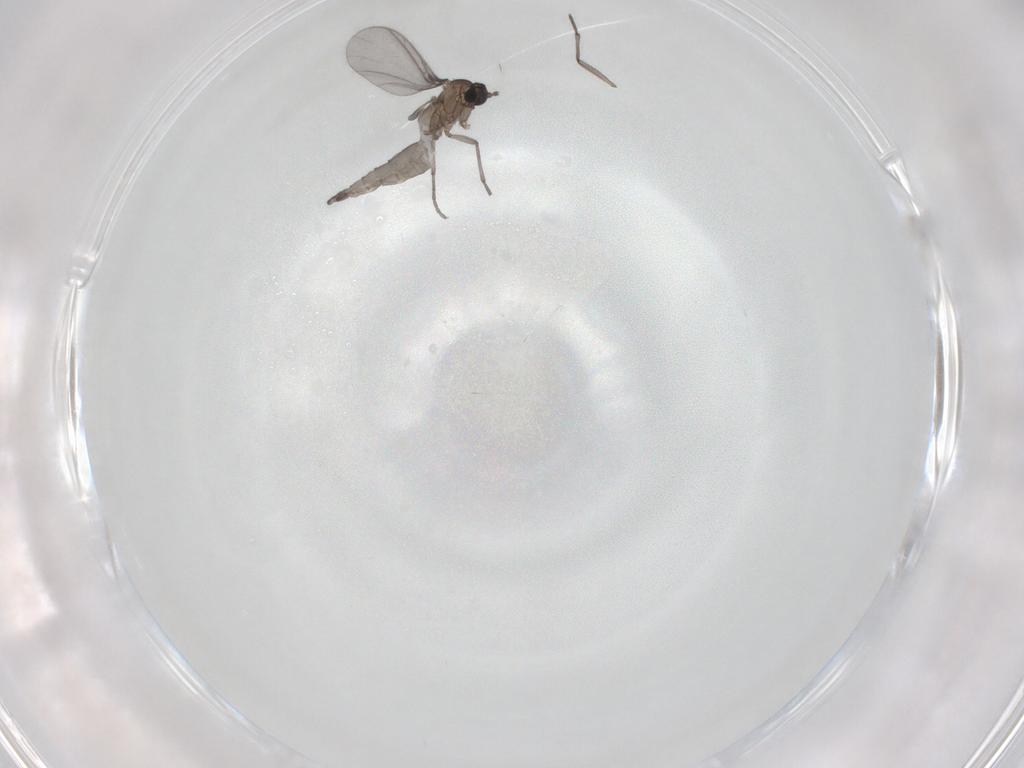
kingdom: Animalia
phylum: Arthropoda
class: Insecta
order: Diptera
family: Sciaridae
